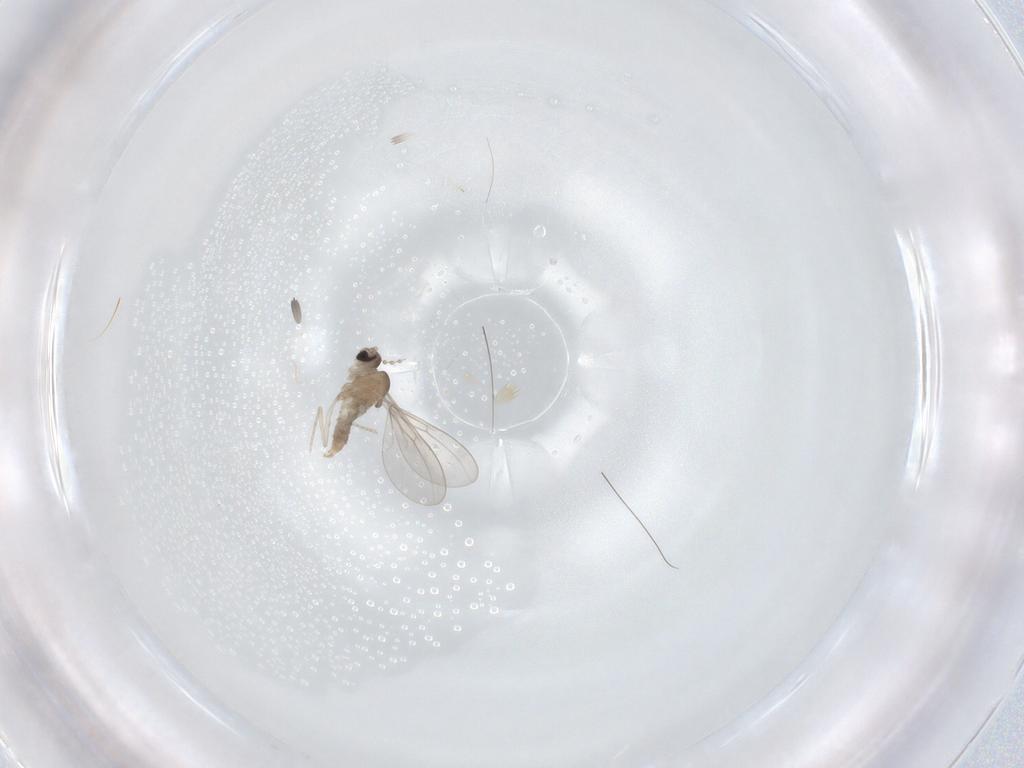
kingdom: Animalia
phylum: Arthropoda
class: Insecta
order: Diptera
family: Cecidomyiidae
